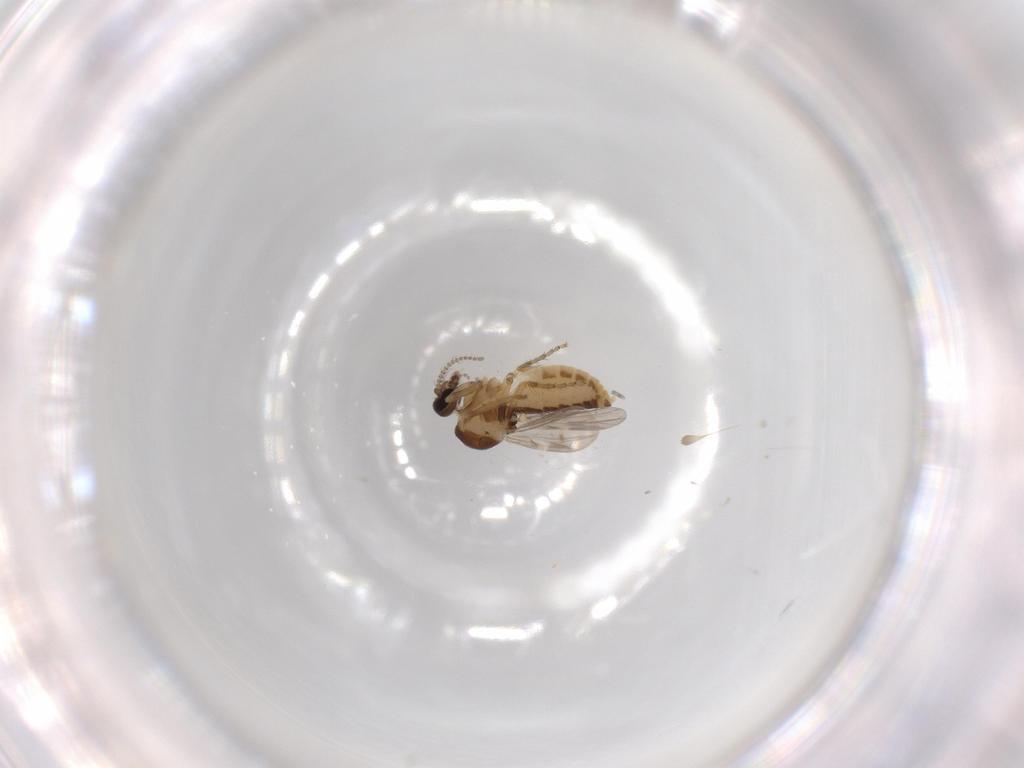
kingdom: Animalia
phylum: Arthropoda
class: Insecta
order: Diptera
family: Ceratopogonidae
